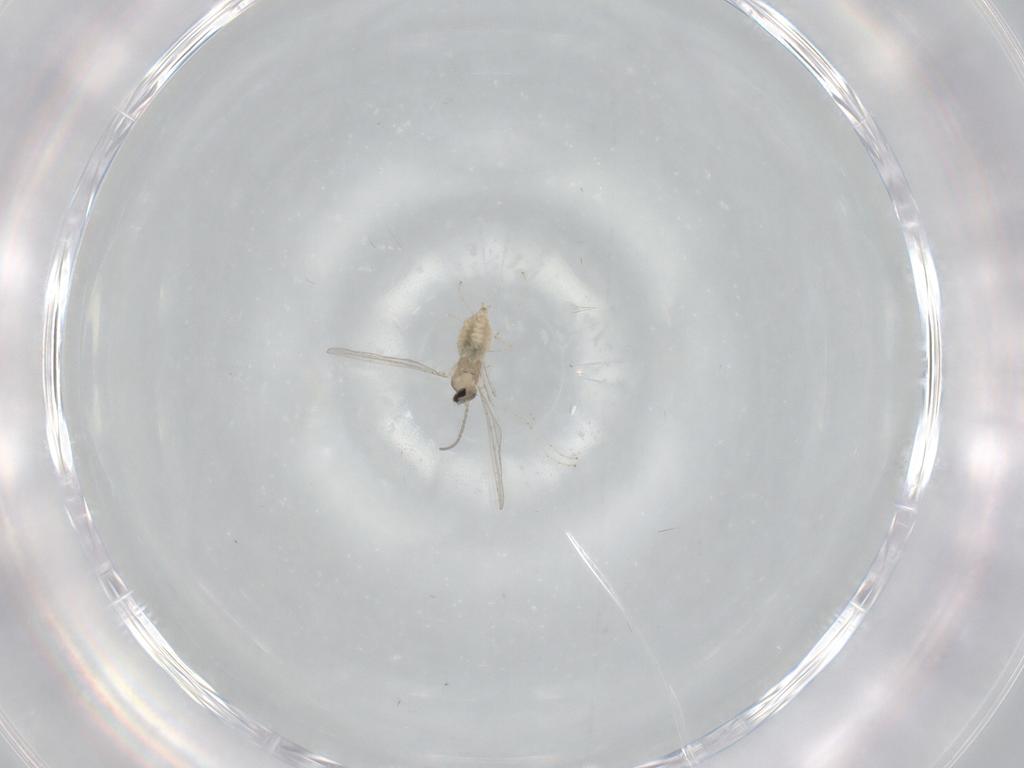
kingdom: Animalia
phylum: Arthropoda
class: Insecta
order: Diptera
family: Cecidomyiidae
